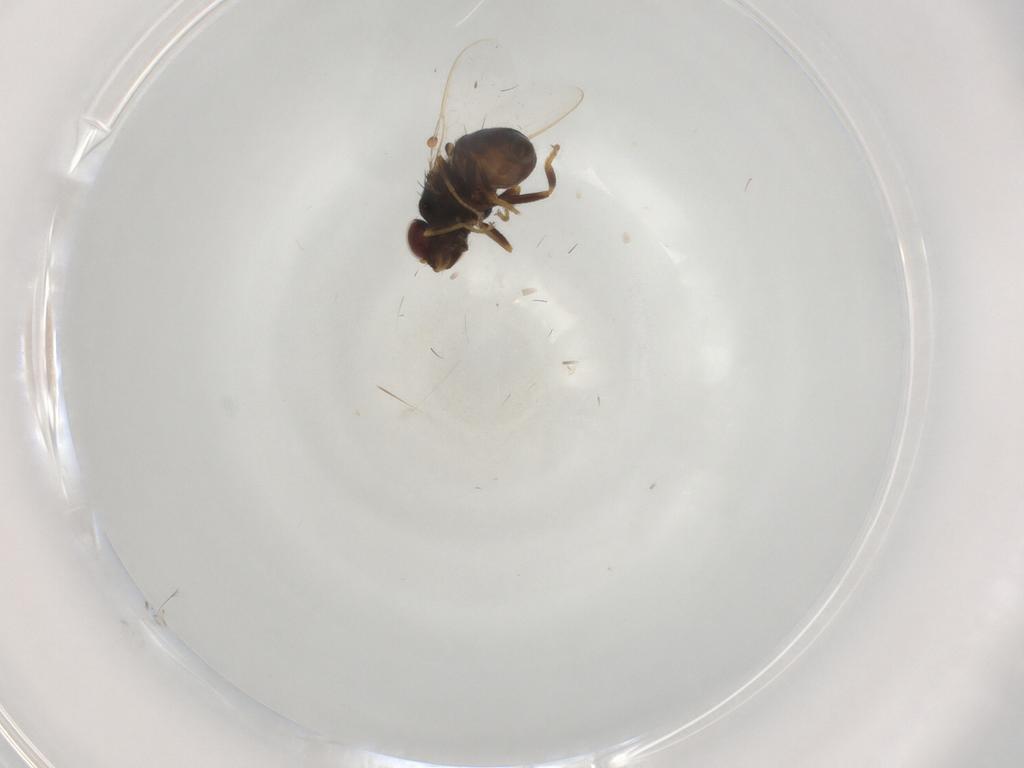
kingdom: Animalia
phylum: Arthropoda
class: Insecta
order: Diptera
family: Chloropidae
